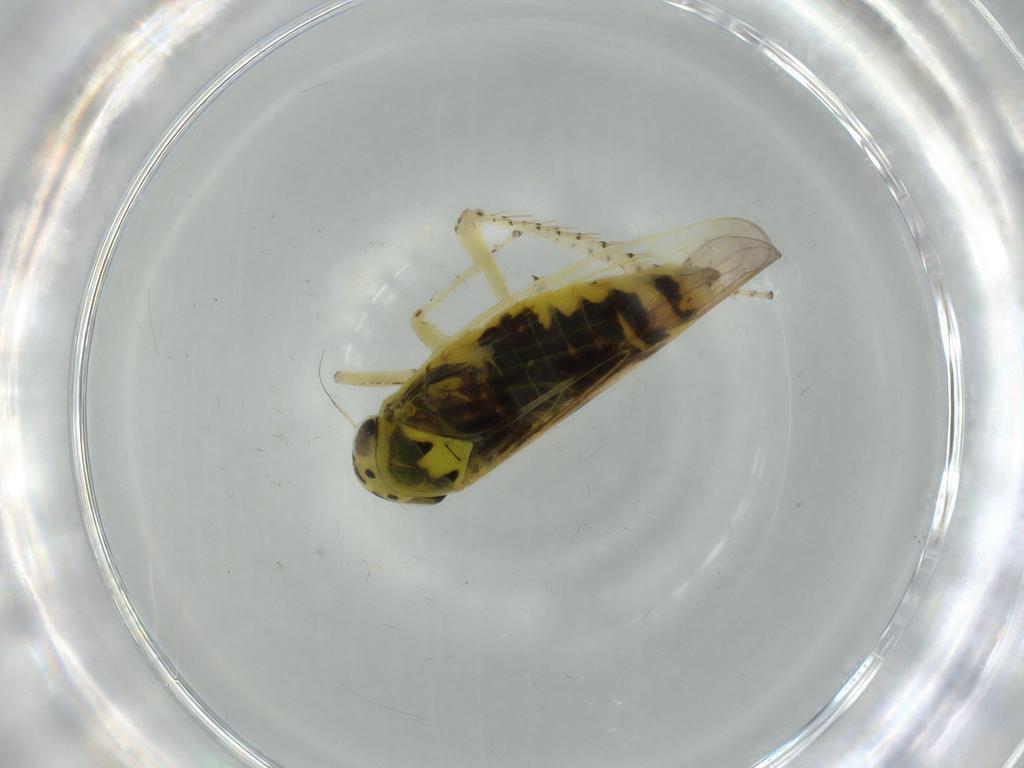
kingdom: Animalia
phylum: Arthropoda
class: Insecta
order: Hemiptera
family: Cicadellidae
